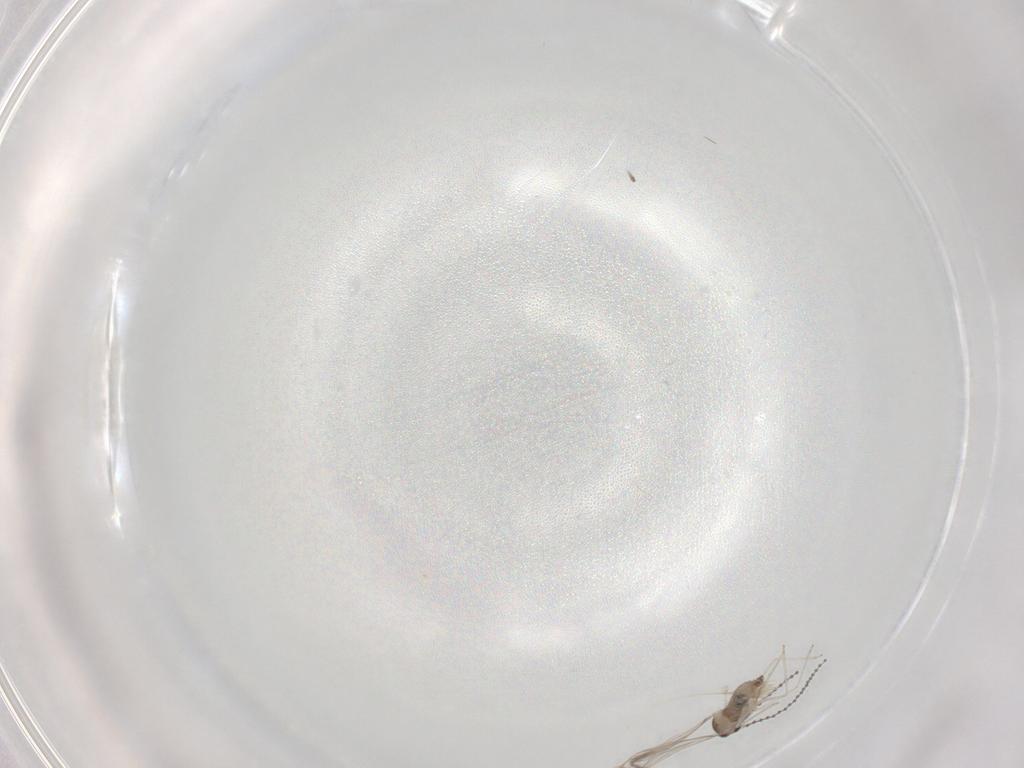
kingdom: Animalia
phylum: Arthropoda
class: Insecta
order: Diptera
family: Cecidomyiidae
